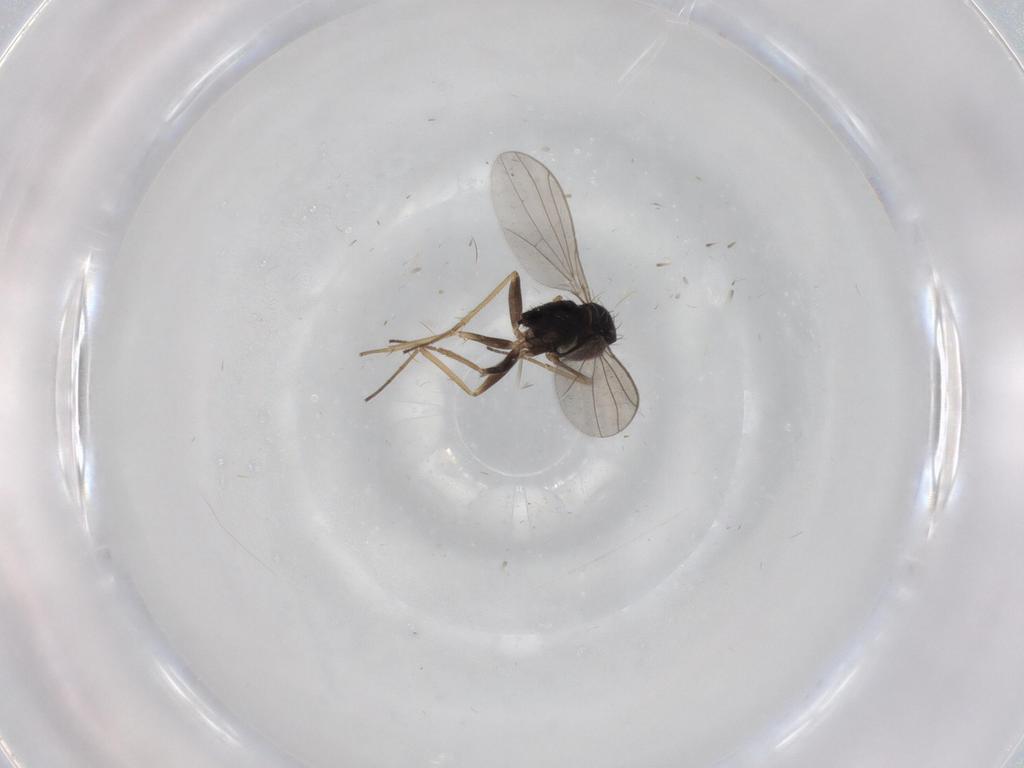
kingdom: Animalia
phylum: Arthropoda
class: Insecta
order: Diptera
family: Dolichopodidae
